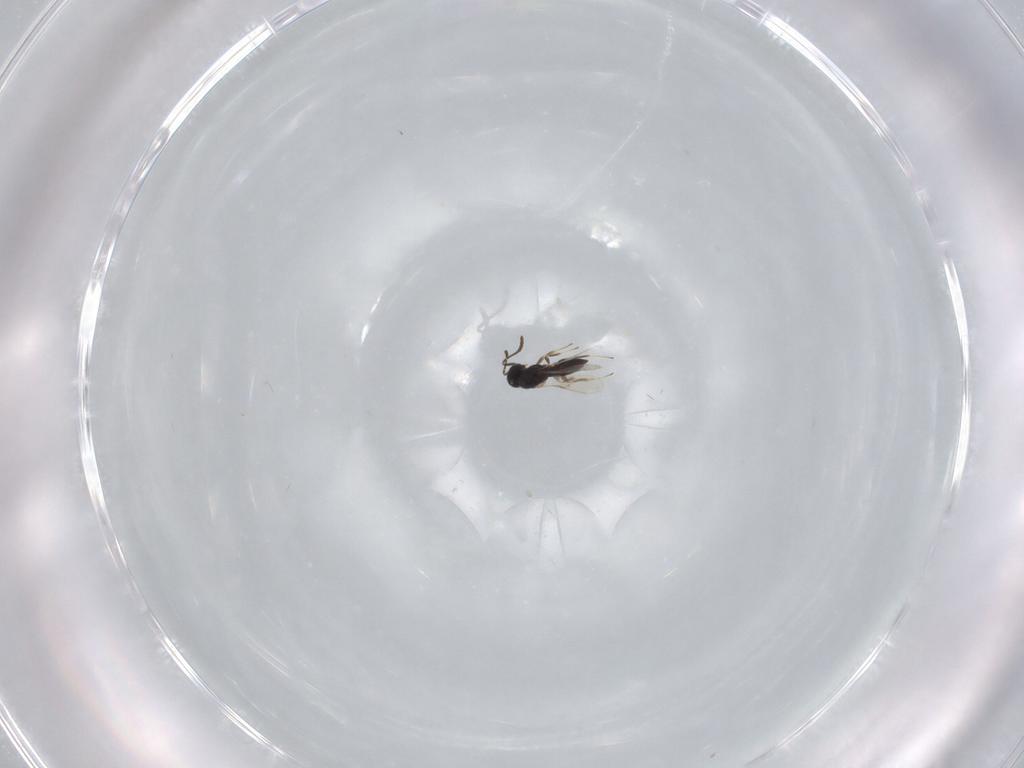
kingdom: Animalia
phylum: Arthropoda
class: Insecta
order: Hymenoptera
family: Scelionidae
